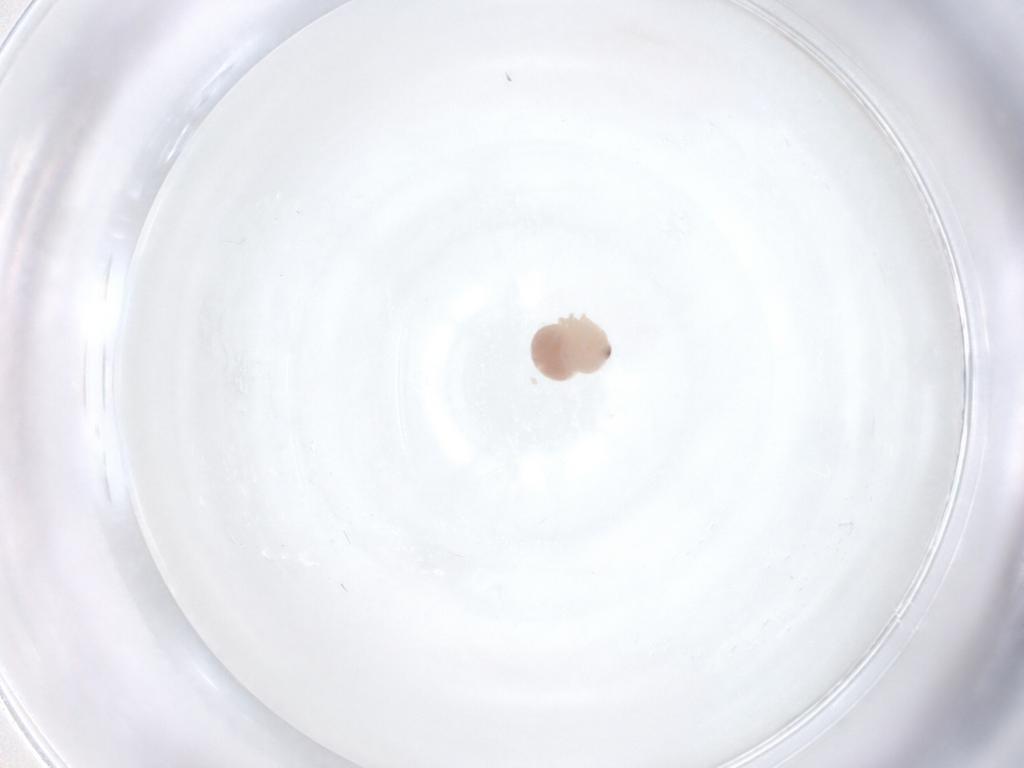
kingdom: Animalia
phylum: Arthropoda
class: Arachnida
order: Araneae
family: Pholcidae
